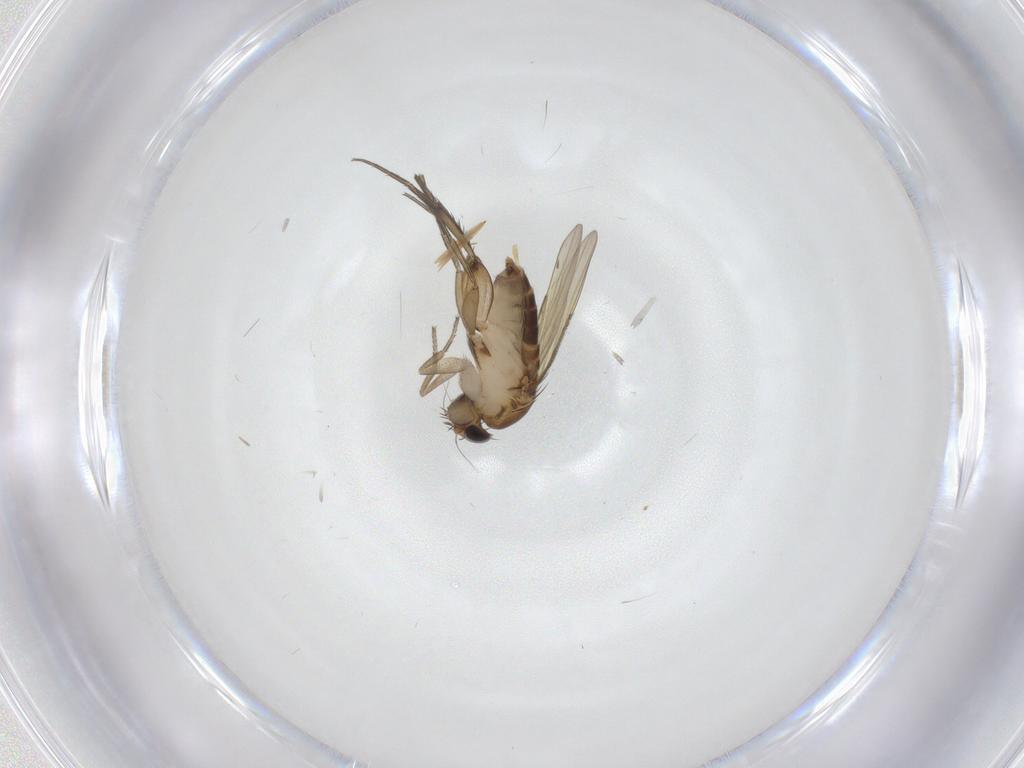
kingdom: Animalia
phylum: Arthropoda
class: Insecta
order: Diptera
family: Phoridae
